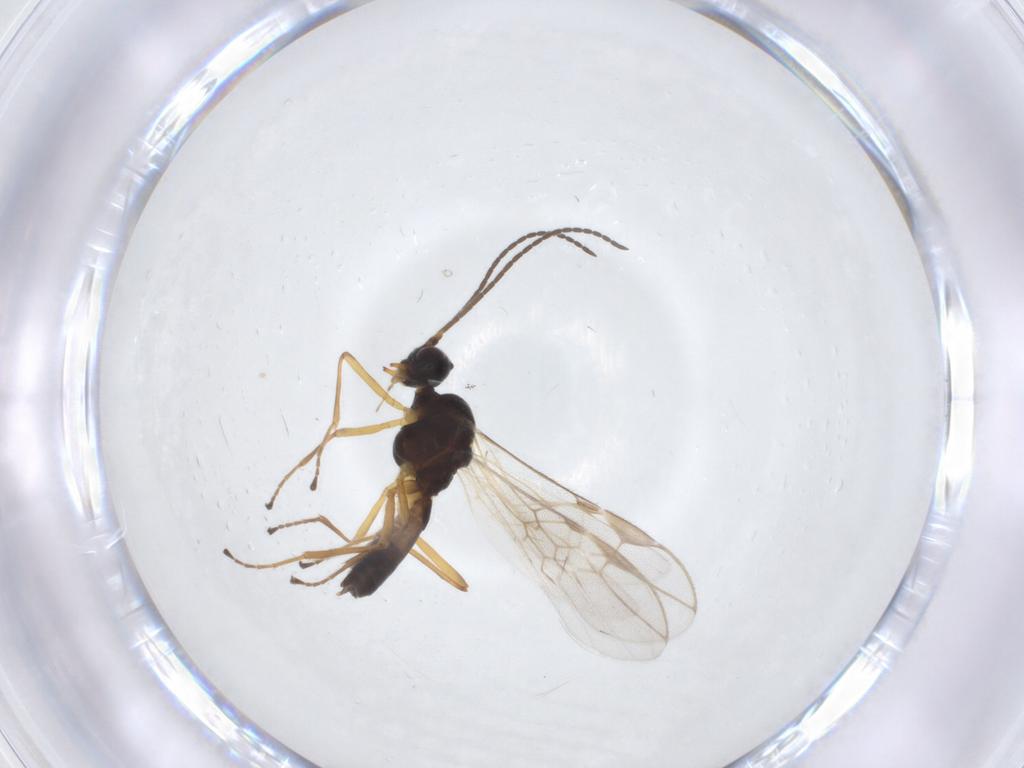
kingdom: Animalia
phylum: Arthropoda
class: Insecta
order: Hymenoptera
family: Braconidae
